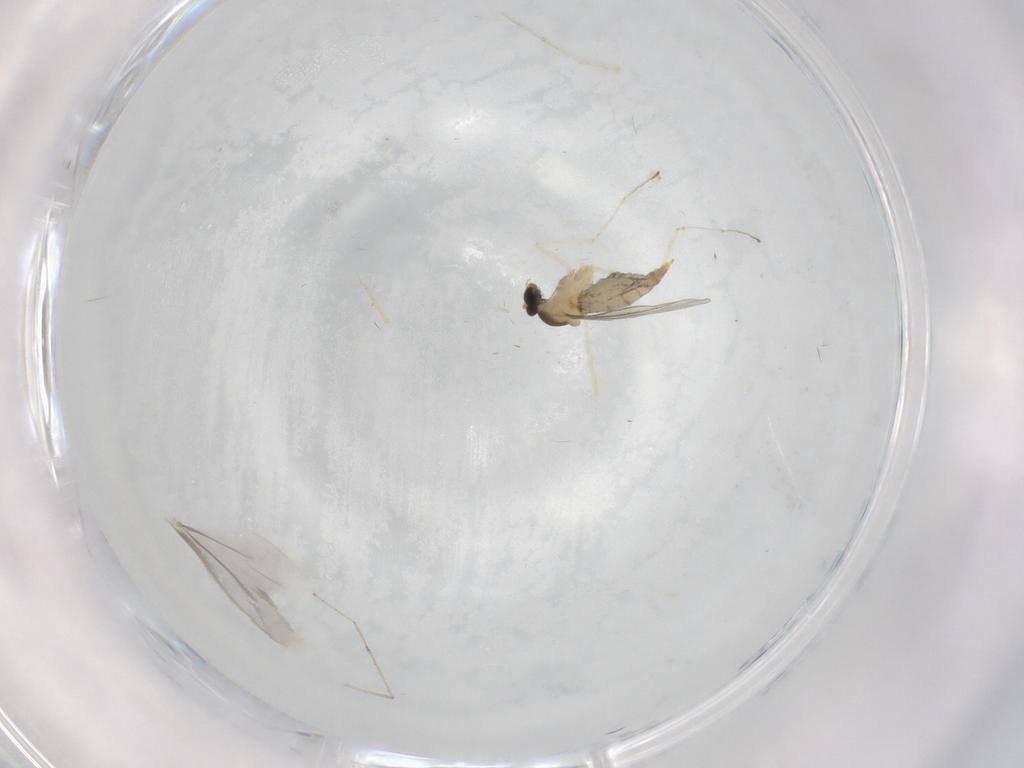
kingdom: Animalia
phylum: Arthropoda
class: Insecta
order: Diptera
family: Cecidomyiidae
